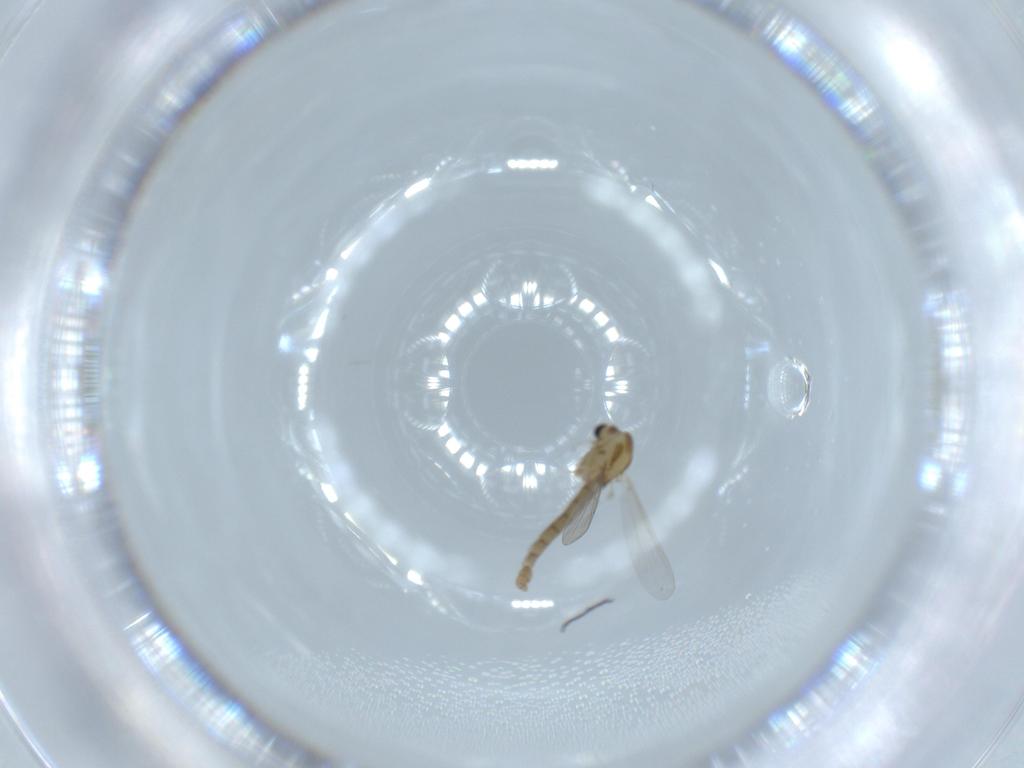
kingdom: Animalia
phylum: Arthropoda
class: Insecta
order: Diptera
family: Chironomidae
